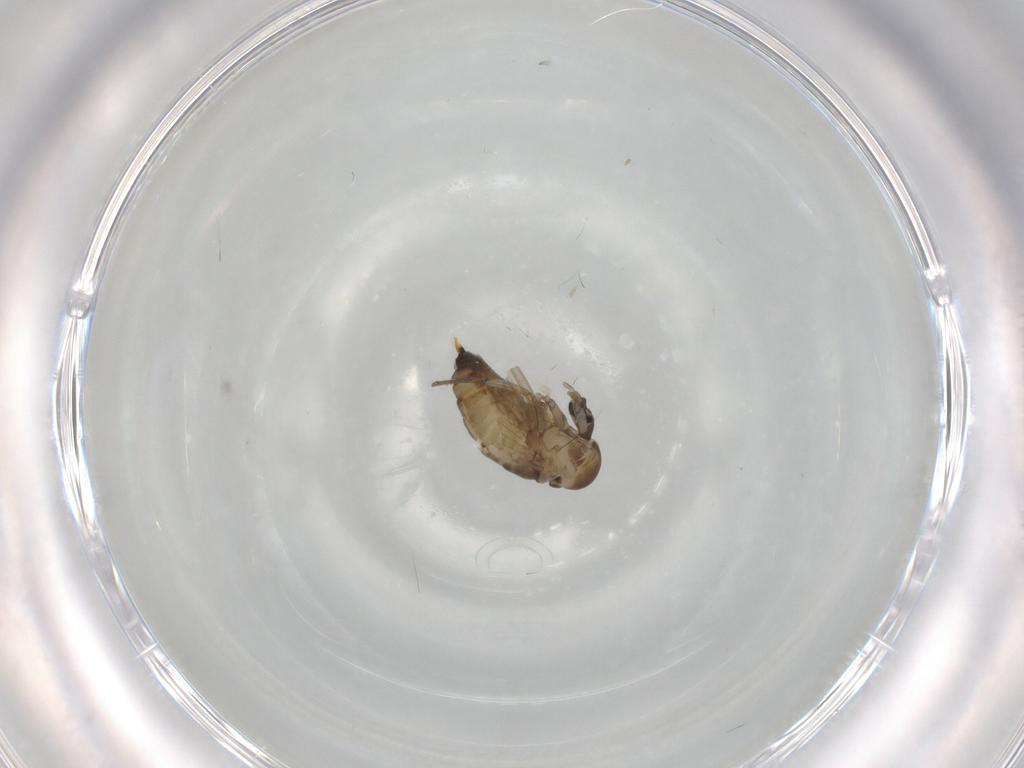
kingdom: Animalia
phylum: Arthropoda
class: Insecta
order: Diptera
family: Psychodidae
